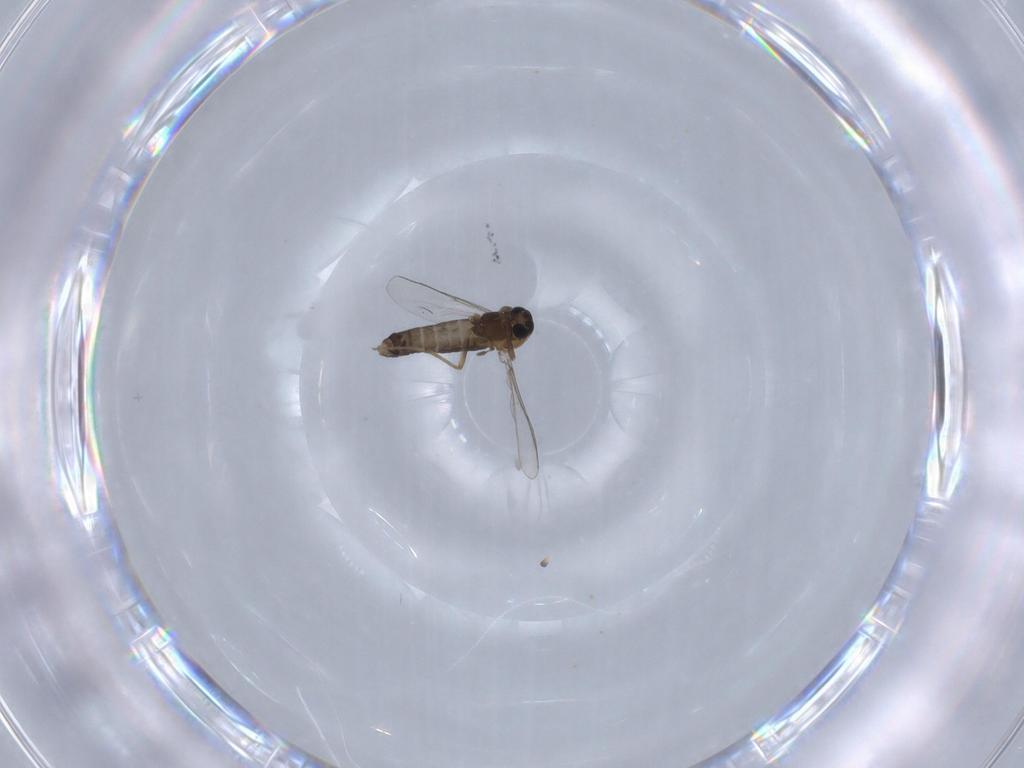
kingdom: Animalia
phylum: Arthropoda
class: Insecta
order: Diptera
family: Chironomidae
